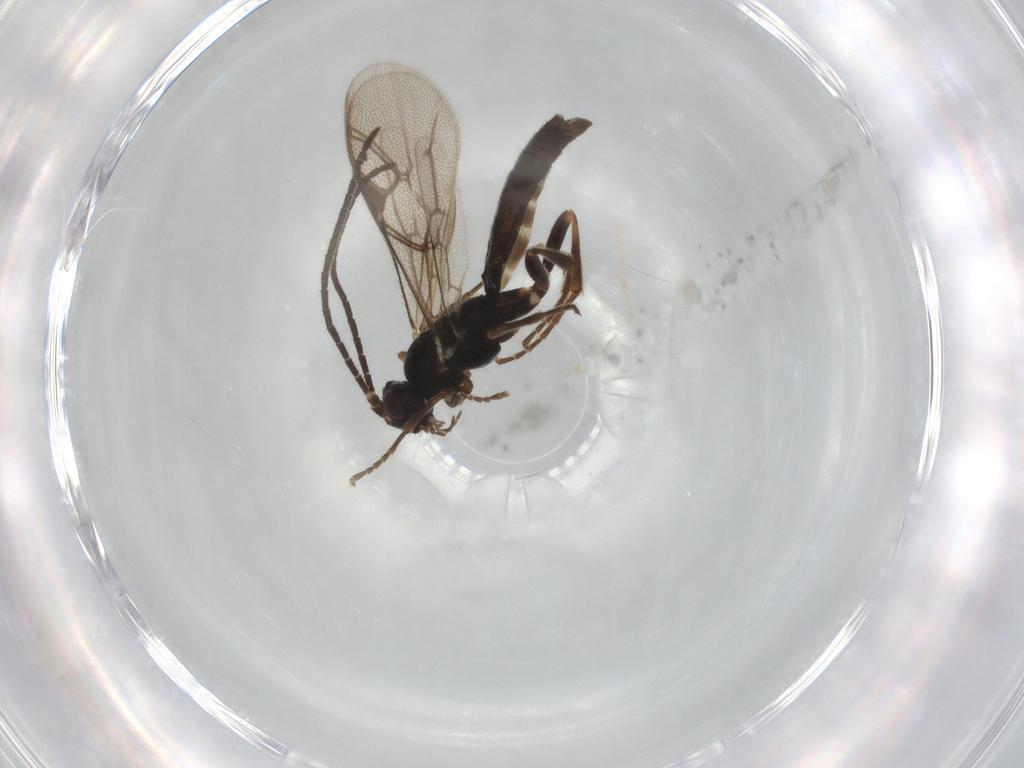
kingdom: Animalia
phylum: Arthropoda
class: Insecta
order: Hymenoptera
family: Ichneumonidae
